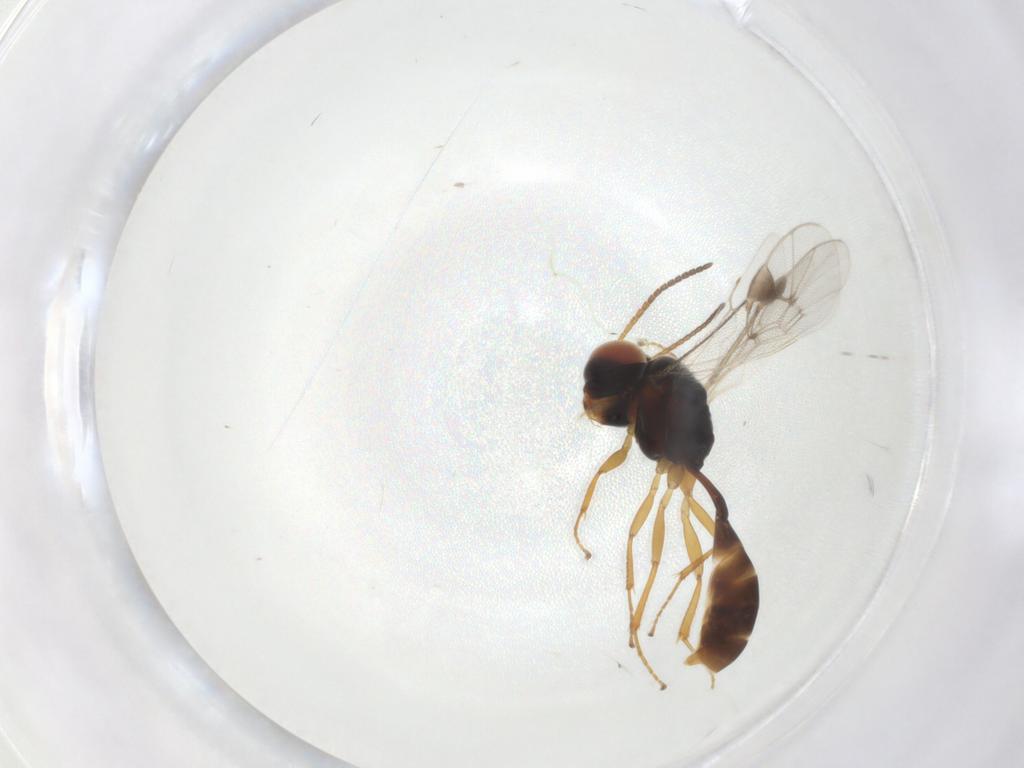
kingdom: Animalia
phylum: Arthropoda
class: Insecta
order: Hymenoptera
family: Ichneumonidae
